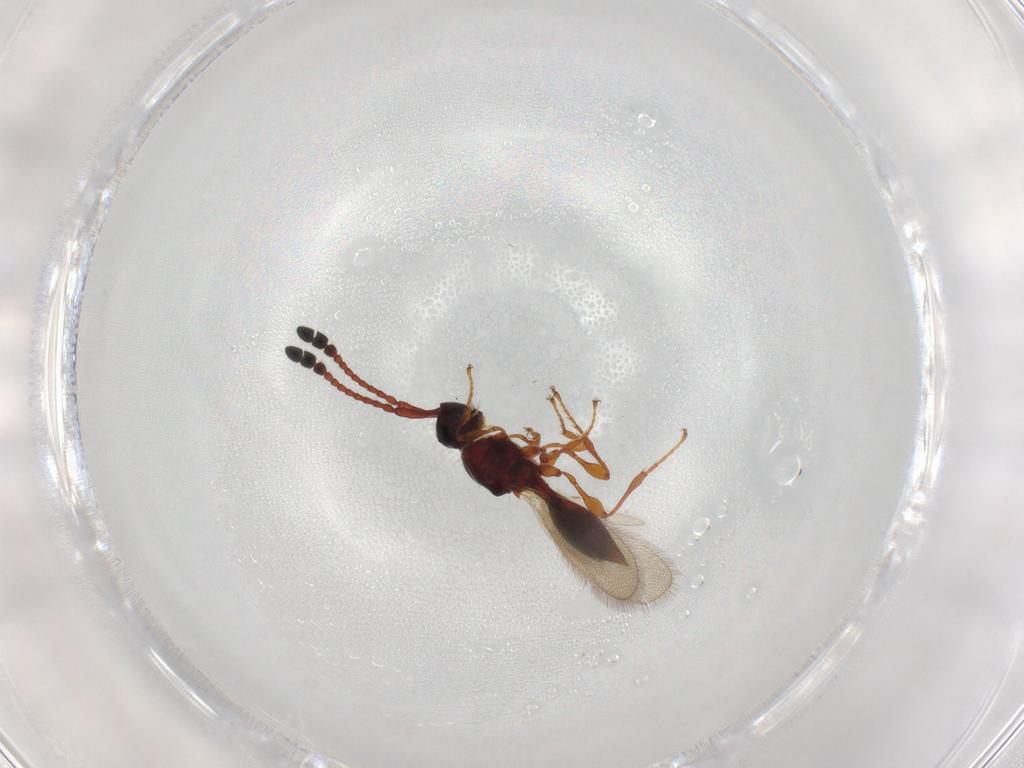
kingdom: Animalia
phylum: Arthropoda
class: Insecta
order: Hymenoptera
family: Diapriidae
